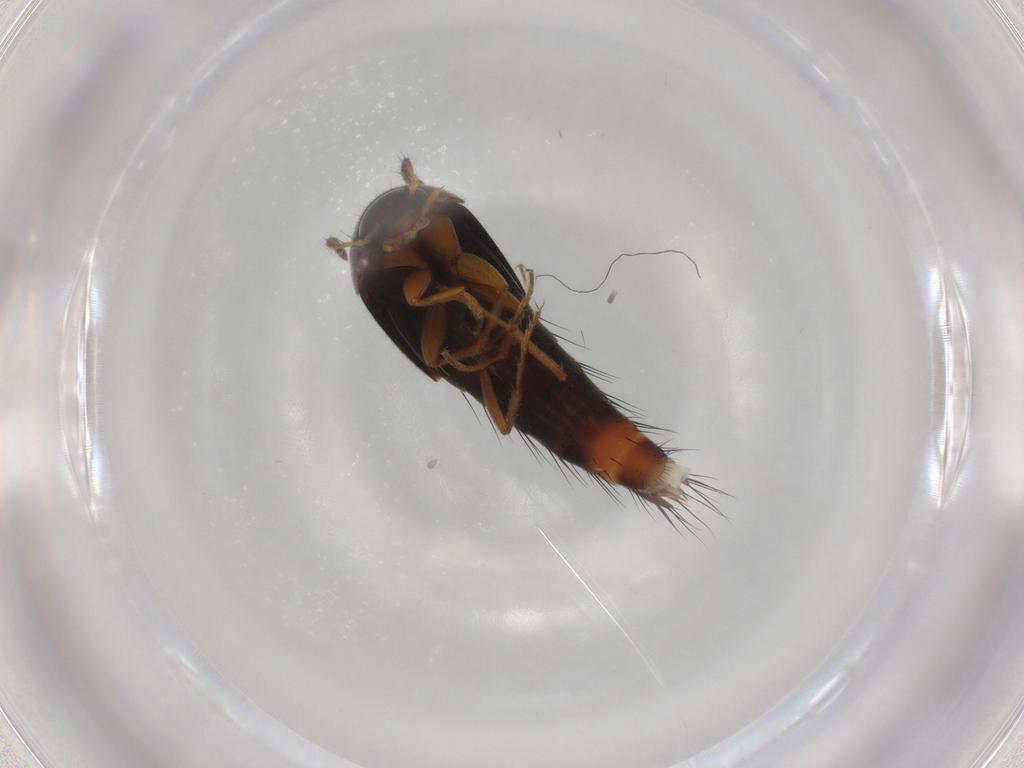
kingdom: Animalia
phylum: Arthropoda
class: Insecta
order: Coleoptera
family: Staphylinidae
